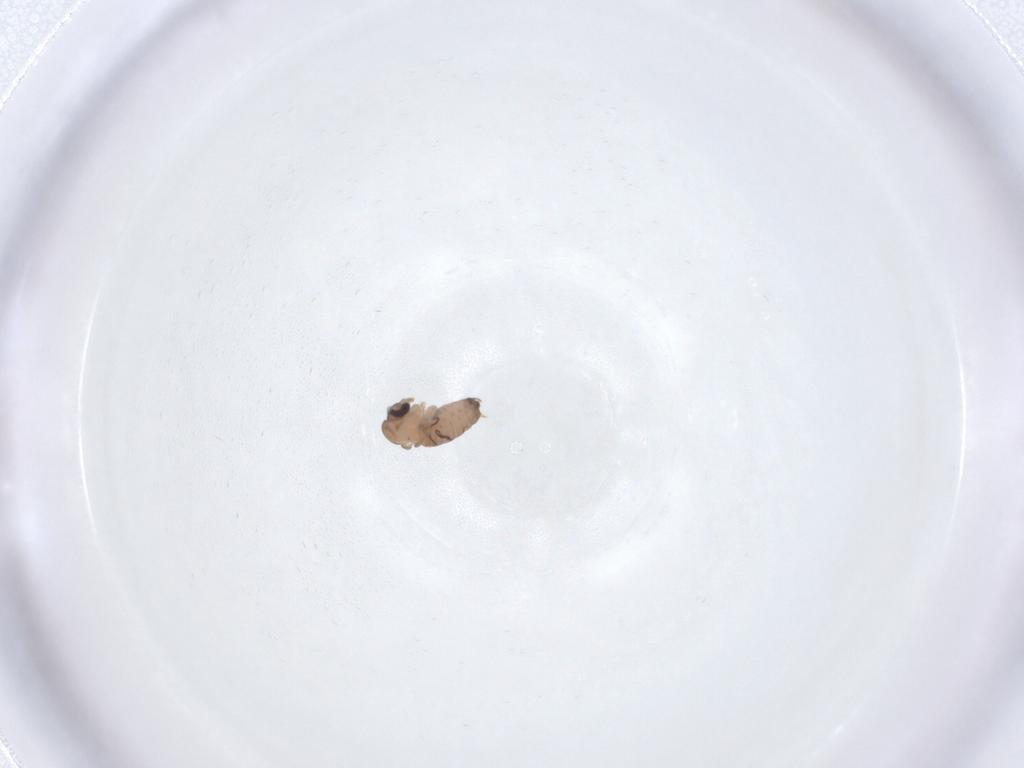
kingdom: Animalia
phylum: Arthropoda
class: Insecta
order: Diptera
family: Psychodidae
